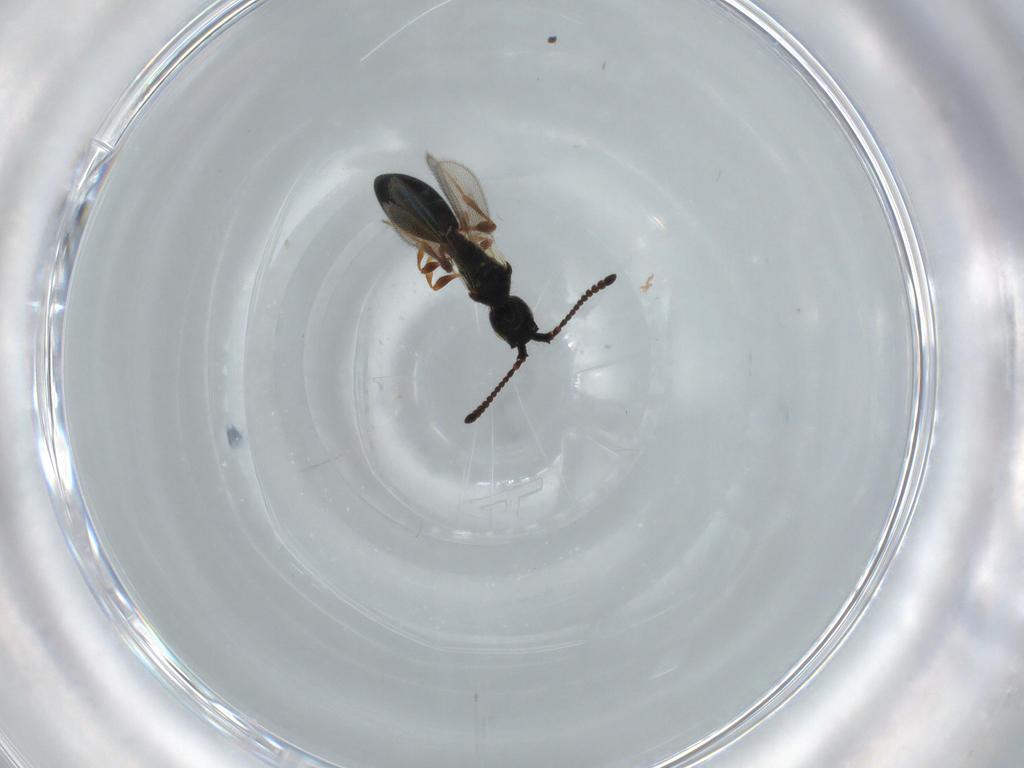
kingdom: Animalia
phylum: Arthropoda
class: Insecta
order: Hymenoptera
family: Diapriidae
